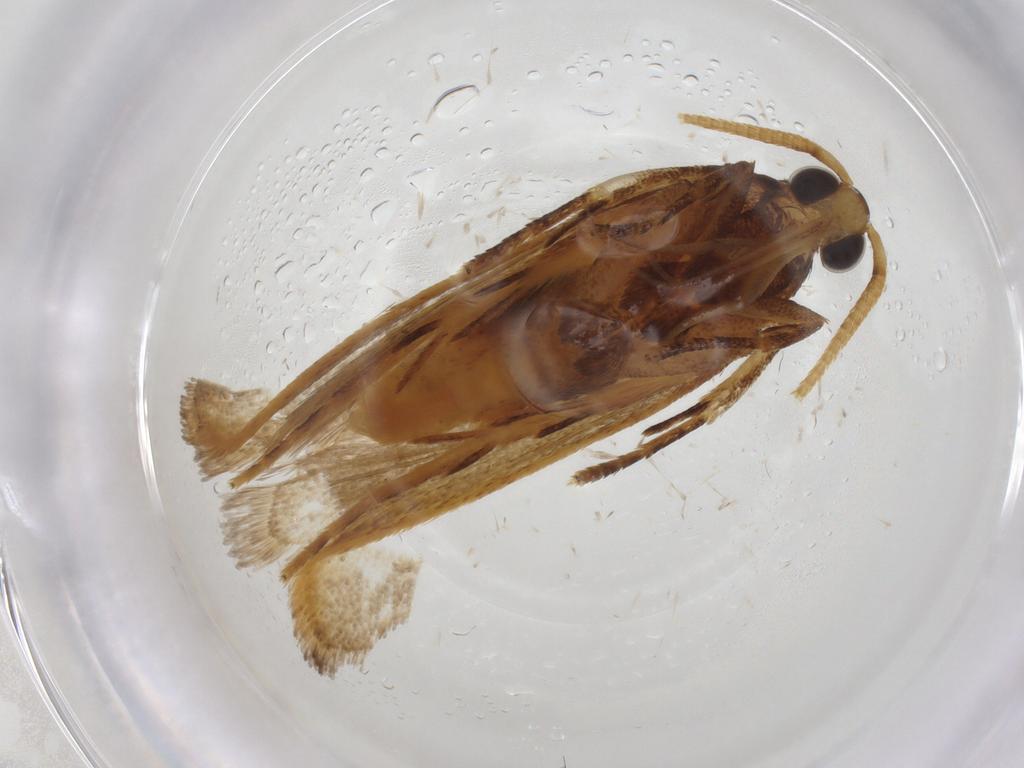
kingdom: Animalia
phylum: Arthropoda
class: Insecta
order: Lepidoptera
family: Lecithoceridae
